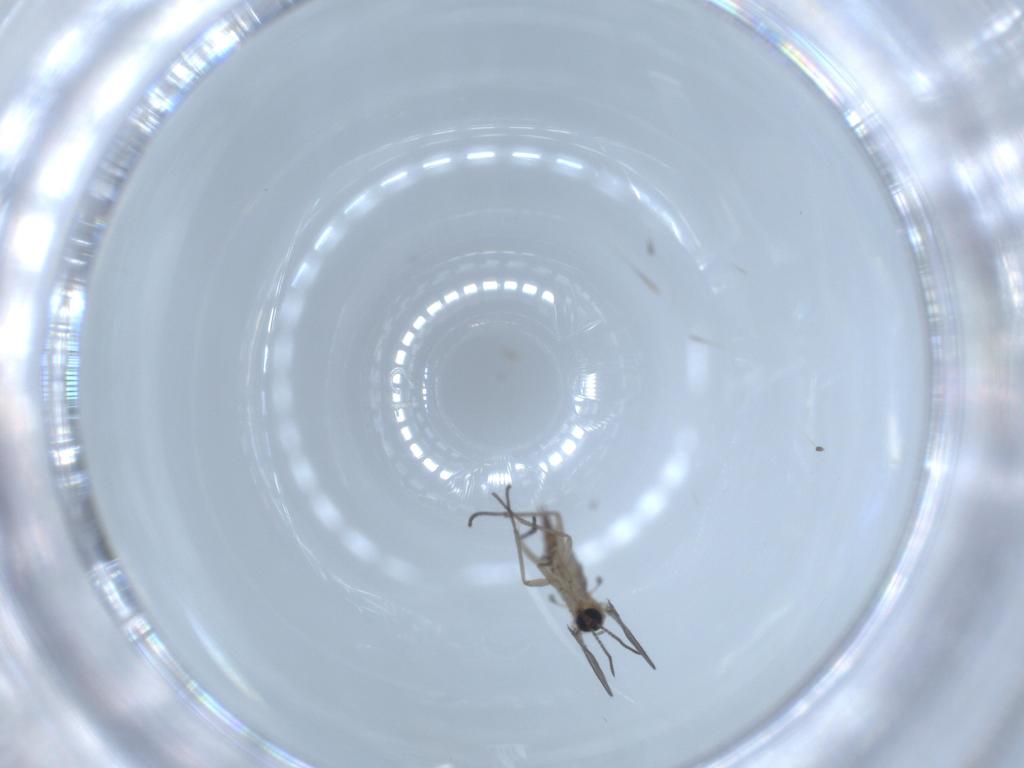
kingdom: Animalia
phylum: Arthropoda
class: Insecta
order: Diptera
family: Sciaridae
